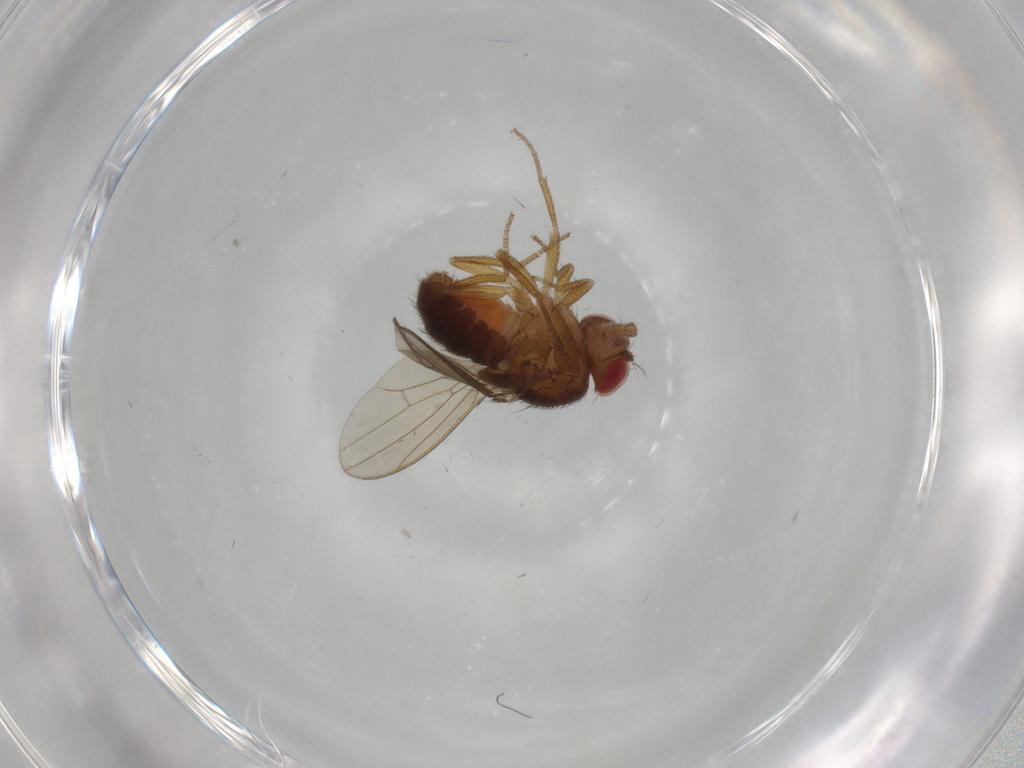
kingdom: Animalia
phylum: Arthropoda
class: Insecta
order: Diptera
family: Drosophilidae
